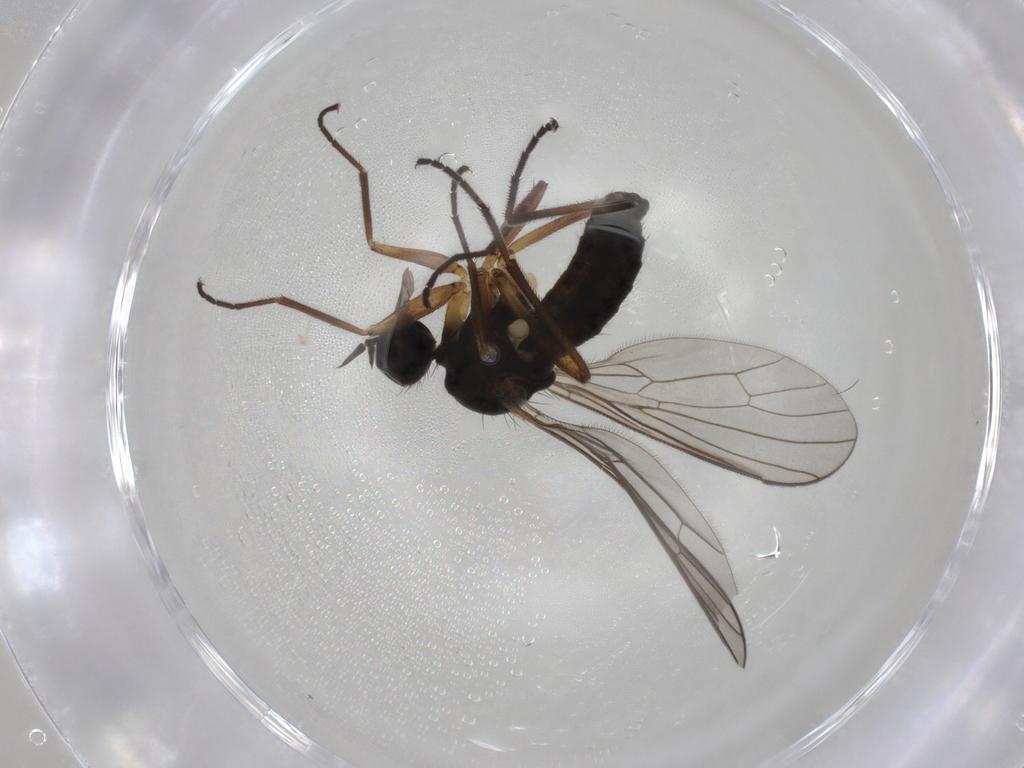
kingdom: Animalia
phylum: Arthropoda
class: Insecta
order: Diptera
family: Empididae
